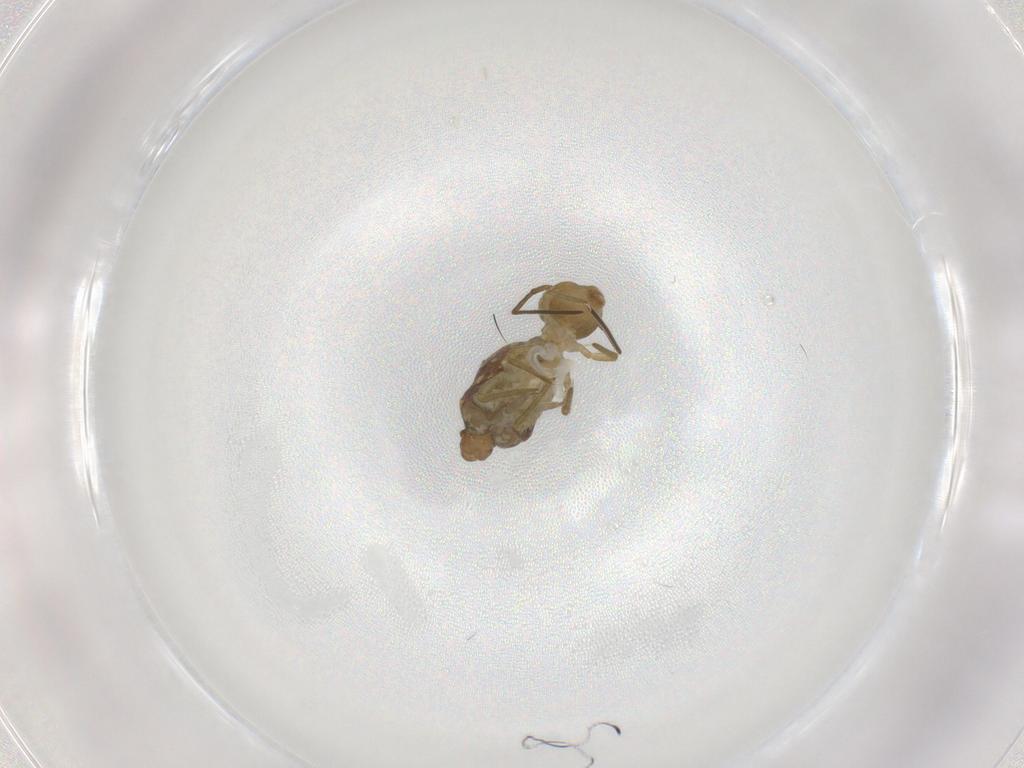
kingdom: Animalia
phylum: Arthropoda
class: Collembola
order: Symphypleona
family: Sminthuridae
